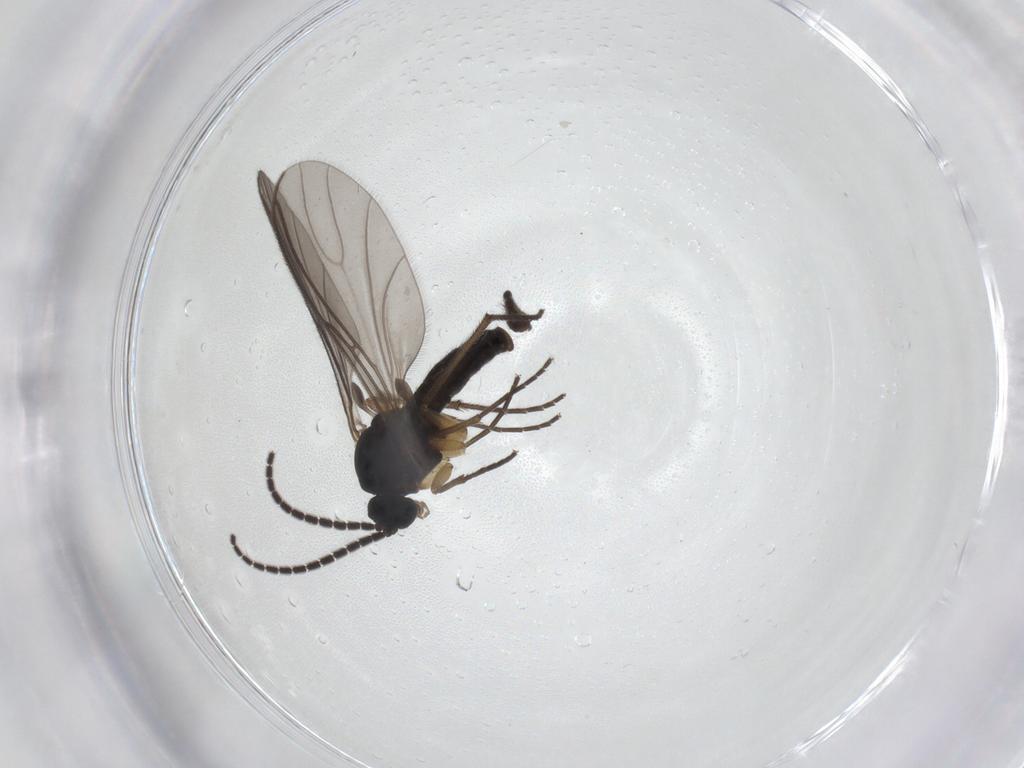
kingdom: Animalia
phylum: Arthropoda
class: Insecta
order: Diptera
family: Sciaridae
